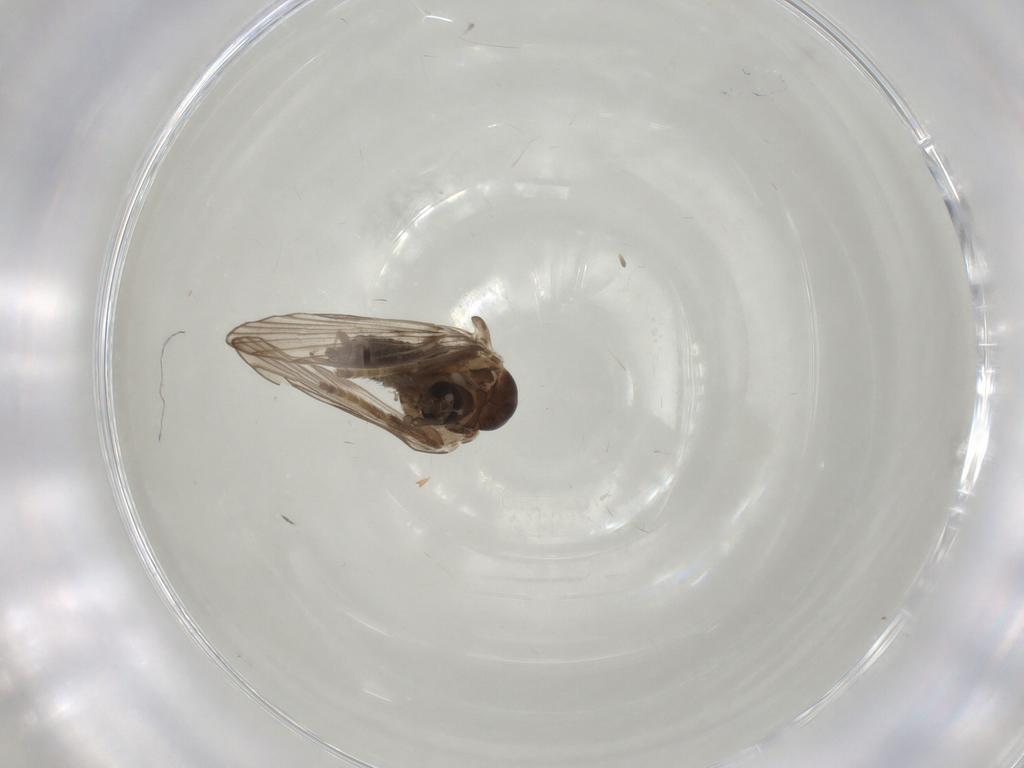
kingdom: Animalia
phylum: Arthropoda
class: Insecta
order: Diptera
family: Psychodidae
